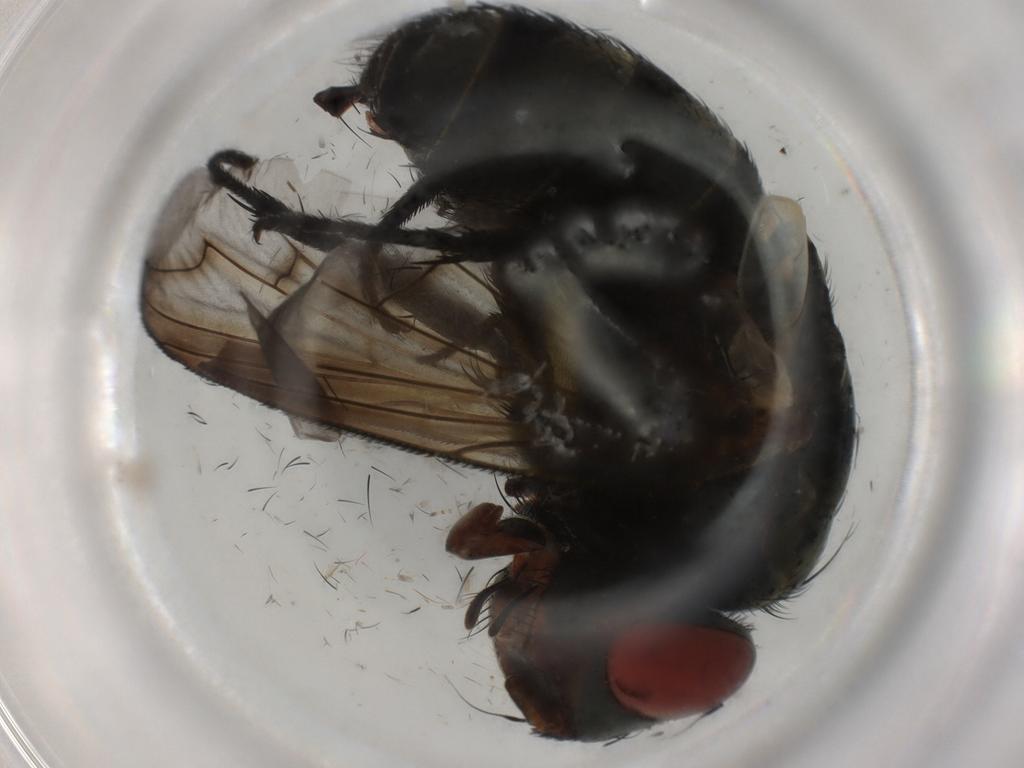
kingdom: Animalia
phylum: Arthropoda
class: Insecta
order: Diptera
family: Sarcophagidae
